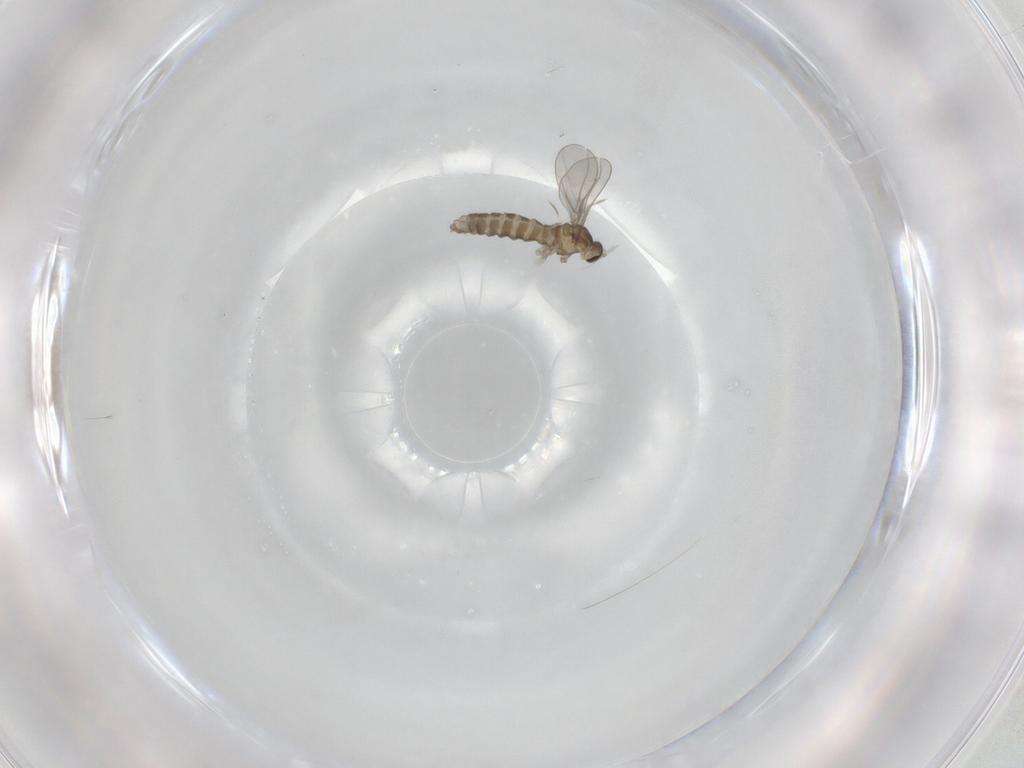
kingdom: Animalia
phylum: Arthropoda
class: Insecta
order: Diptera
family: Cecidomyiidae
